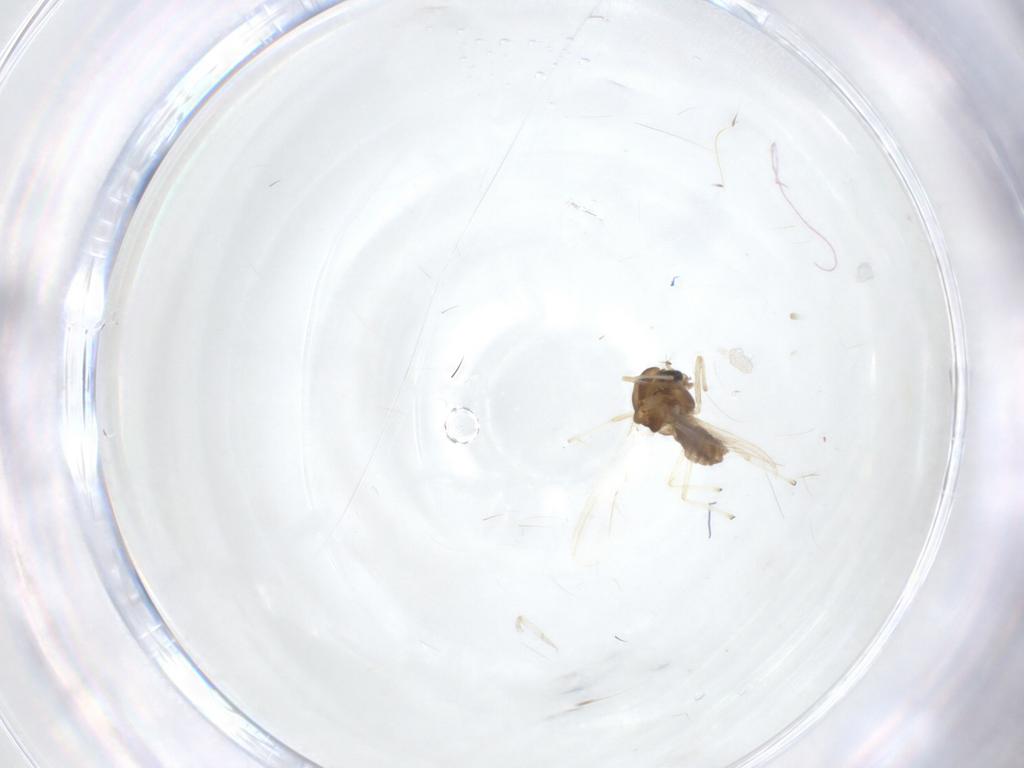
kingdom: Animalia
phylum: Arthropoda
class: Insecta
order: Diptera
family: Chironomidae
